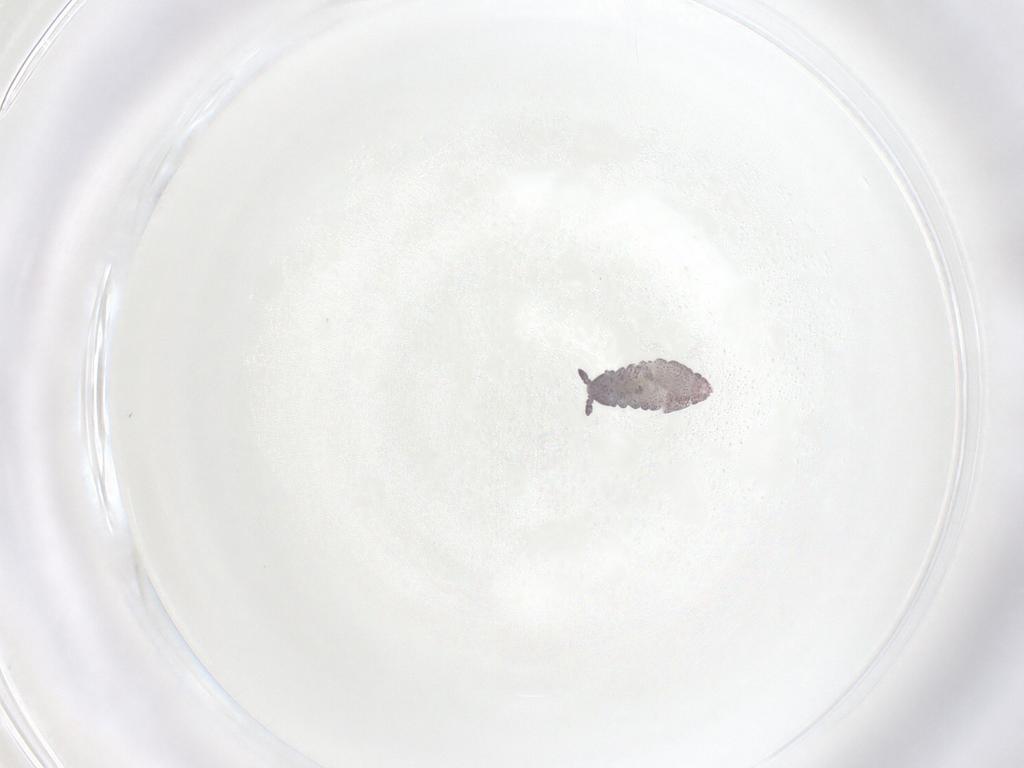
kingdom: Animalia
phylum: Arthropoda
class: Collembola
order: Poduromorpha
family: Hypogastruridae
